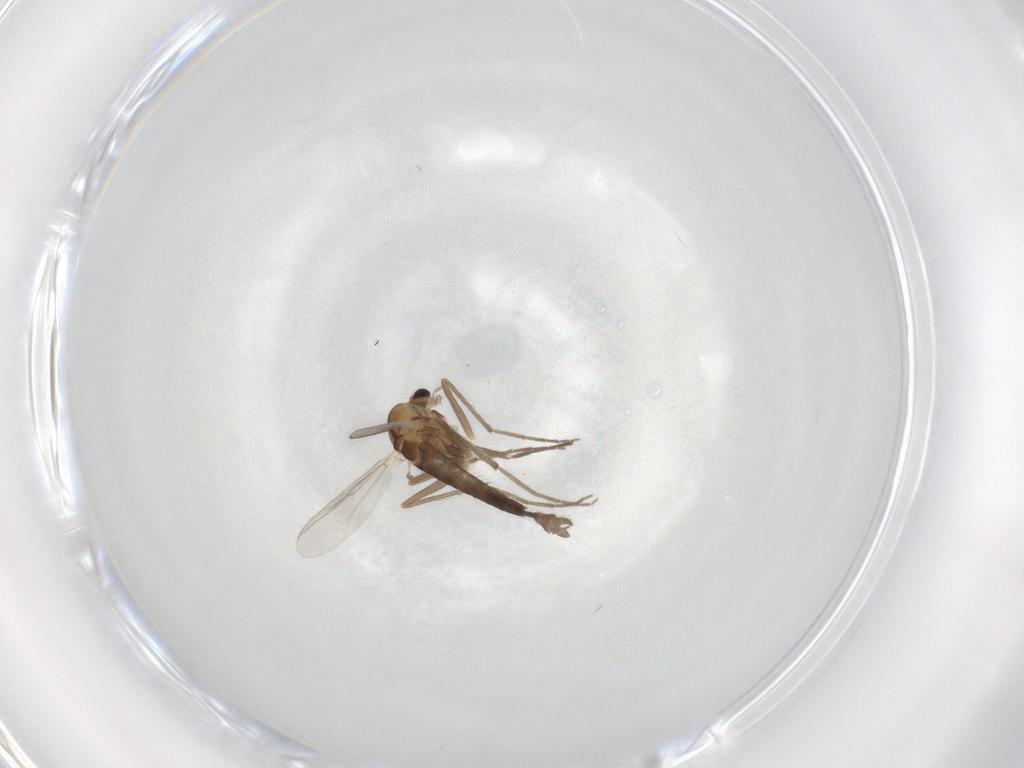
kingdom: Animalia
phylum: Arthropoda
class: Insecta
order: Diptera
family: Chironomidae
